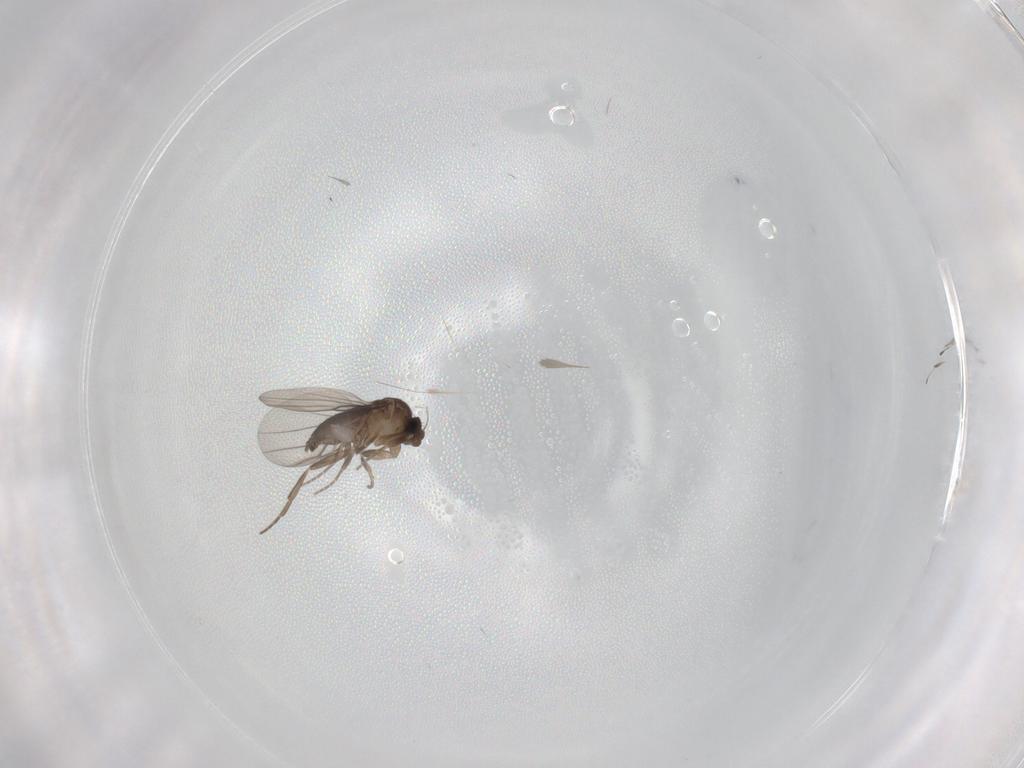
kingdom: Animalia
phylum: Arthropoda
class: Insecta
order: Diptera
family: Phoridae
